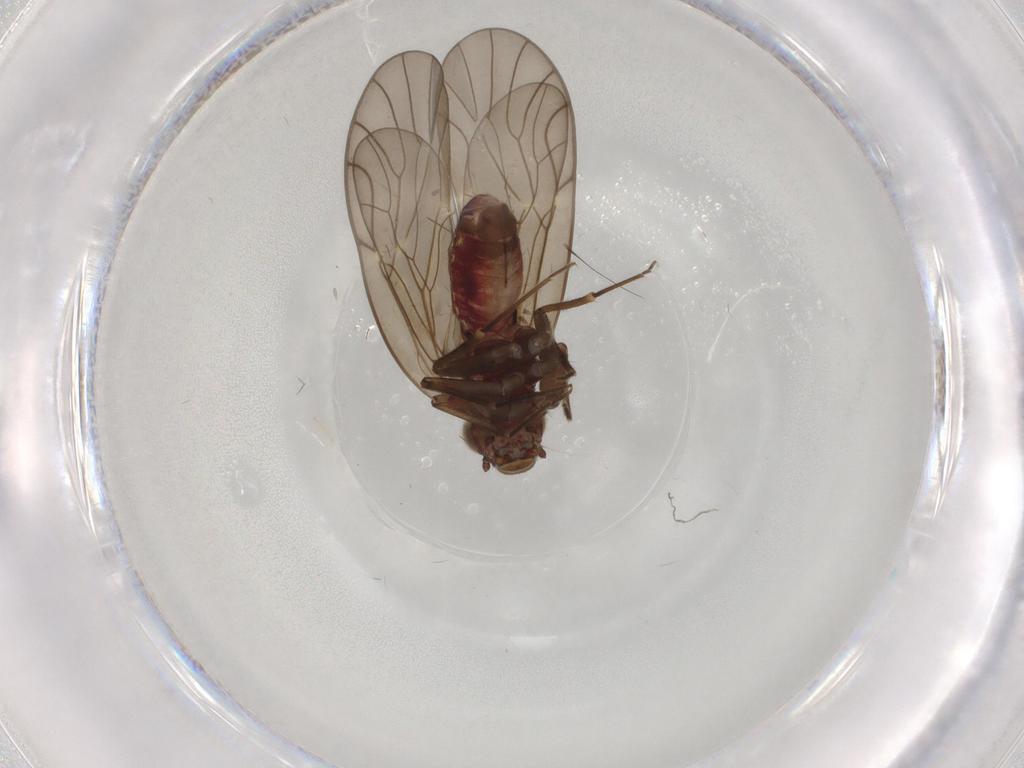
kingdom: Animalia
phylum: Arthropoda
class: Insecta
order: Psocodea
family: Philotarsidae
